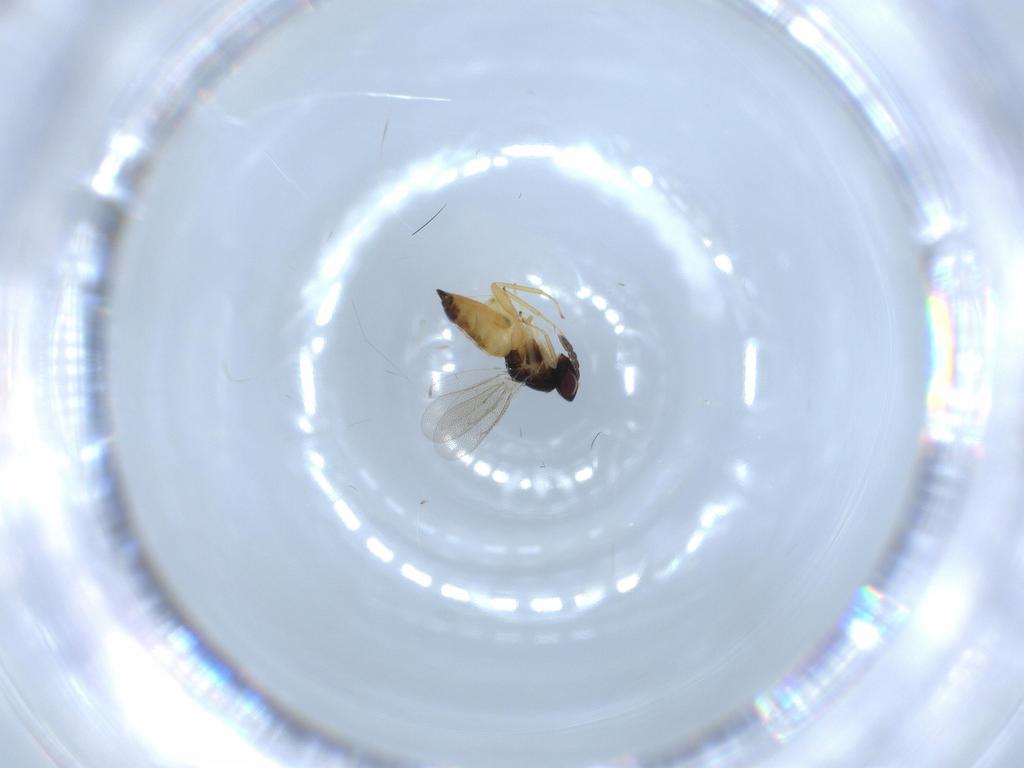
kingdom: Animalia
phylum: Arthropoda
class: Insecta
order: Hymenoptera
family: Eulophidae
